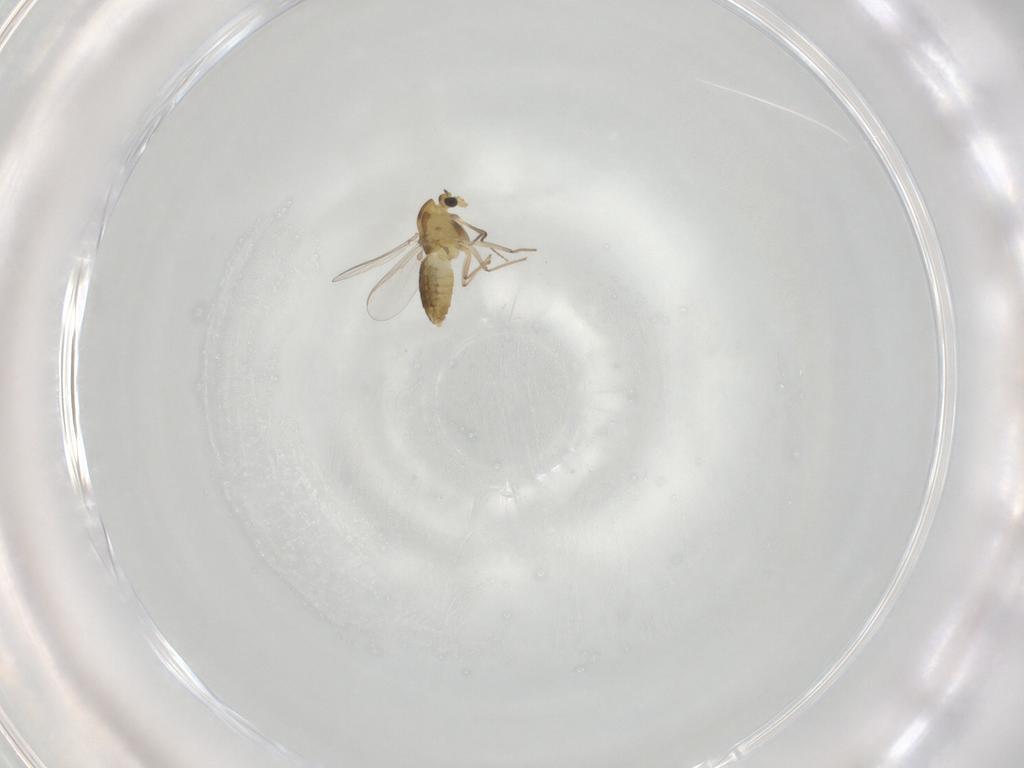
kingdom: Animalia
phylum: Arthropoda
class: Insecta
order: Diptera
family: Chironomidae
